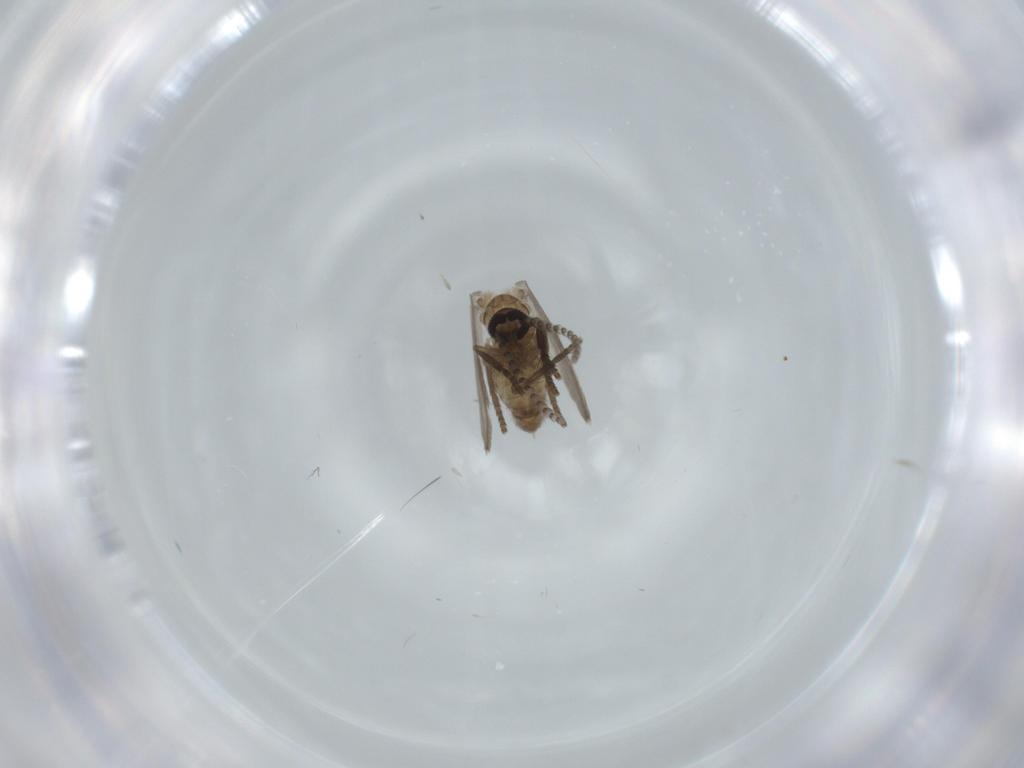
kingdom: Animalia
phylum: Arthropoda
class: Insecta
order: Diptera
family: Psychodidae
